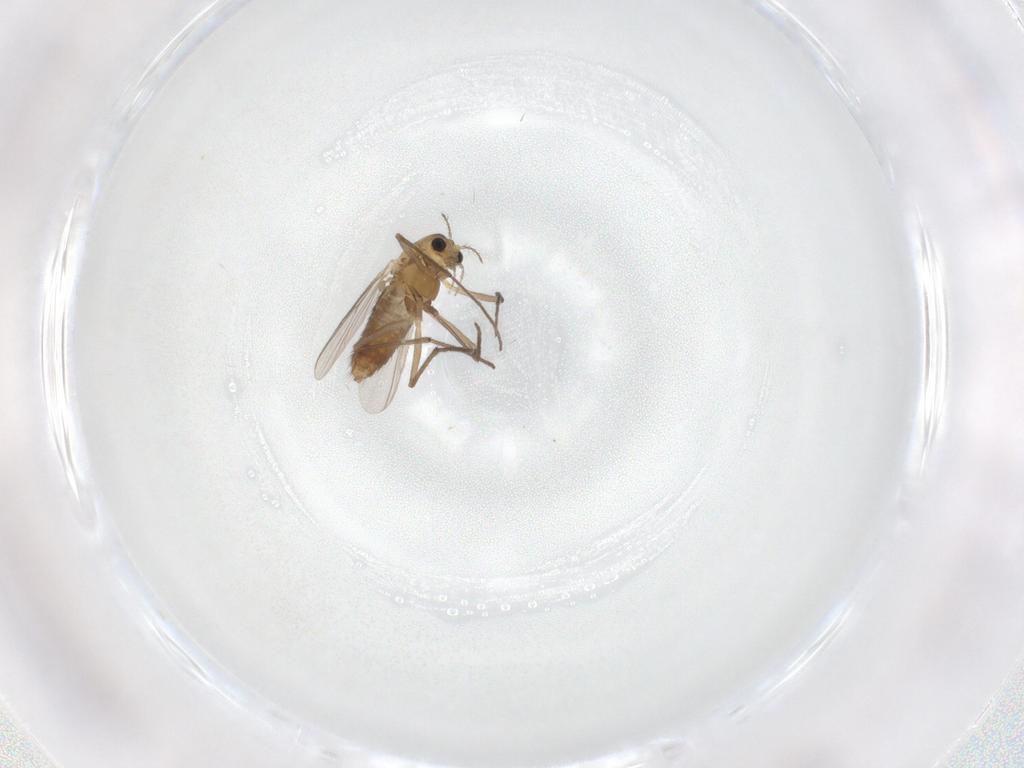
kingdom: Animalia
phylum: Arthropoda
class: Insecta
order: Diptera
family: Chironomidae
